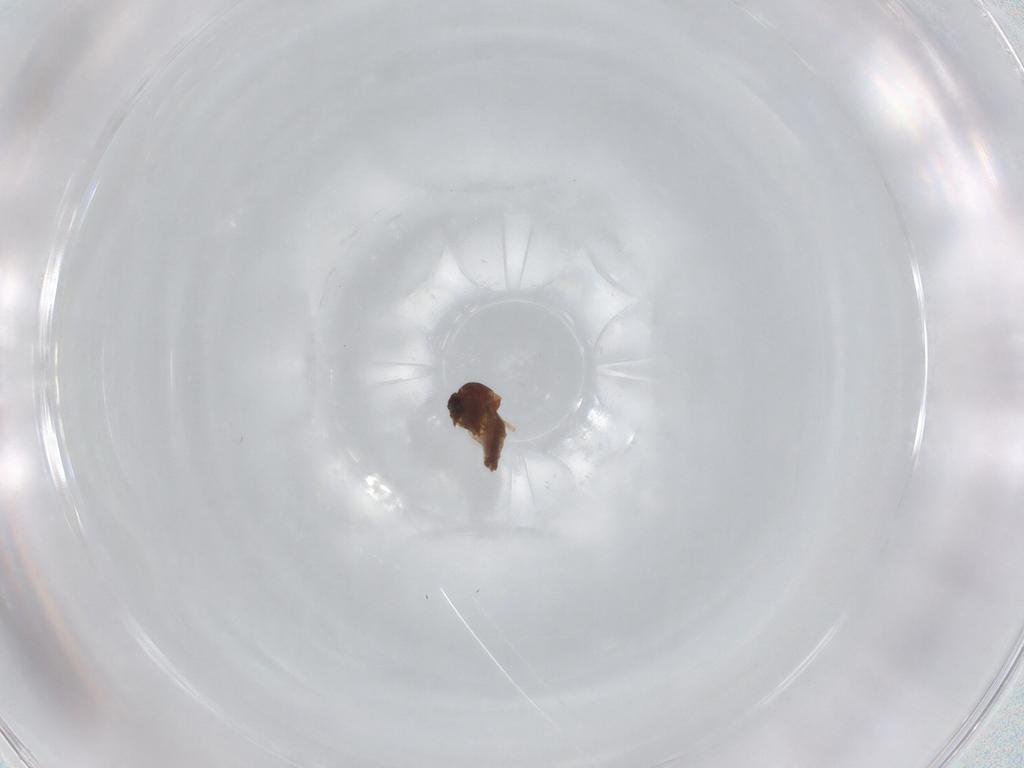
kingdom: Animalia
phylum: Arthropoda
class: Insecta
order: Diptera
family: Ceratopogonidae
